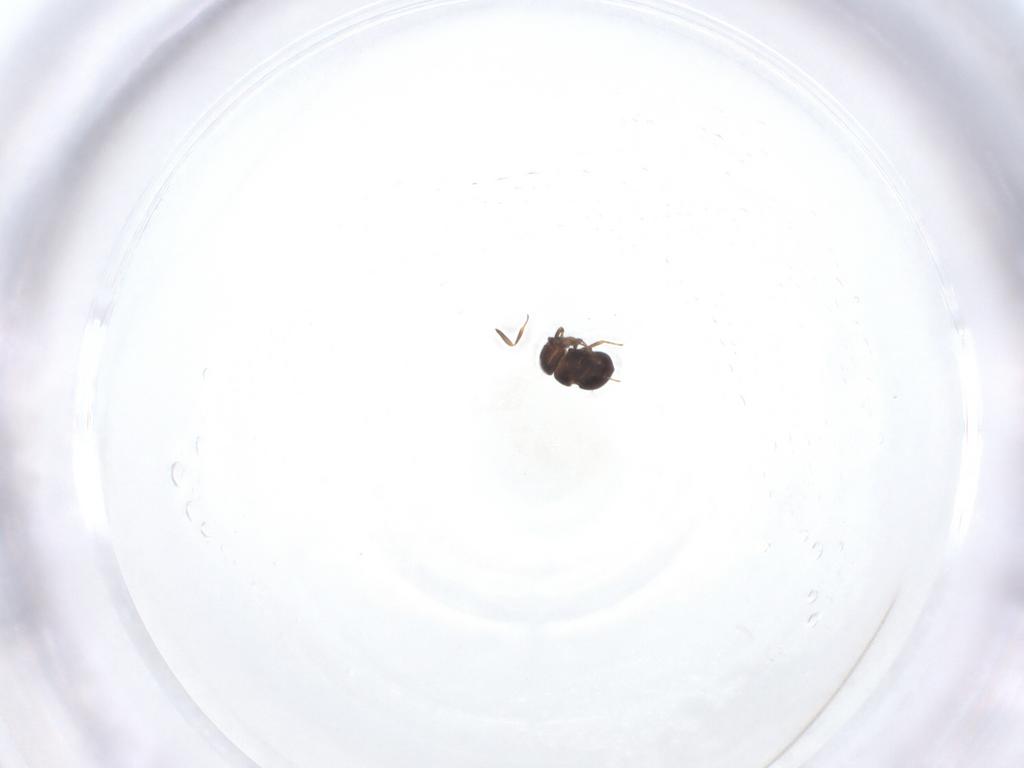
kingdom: Animalia
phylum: Arthropoda
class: Insecta
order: Hymenoptera
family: Scelionidae
